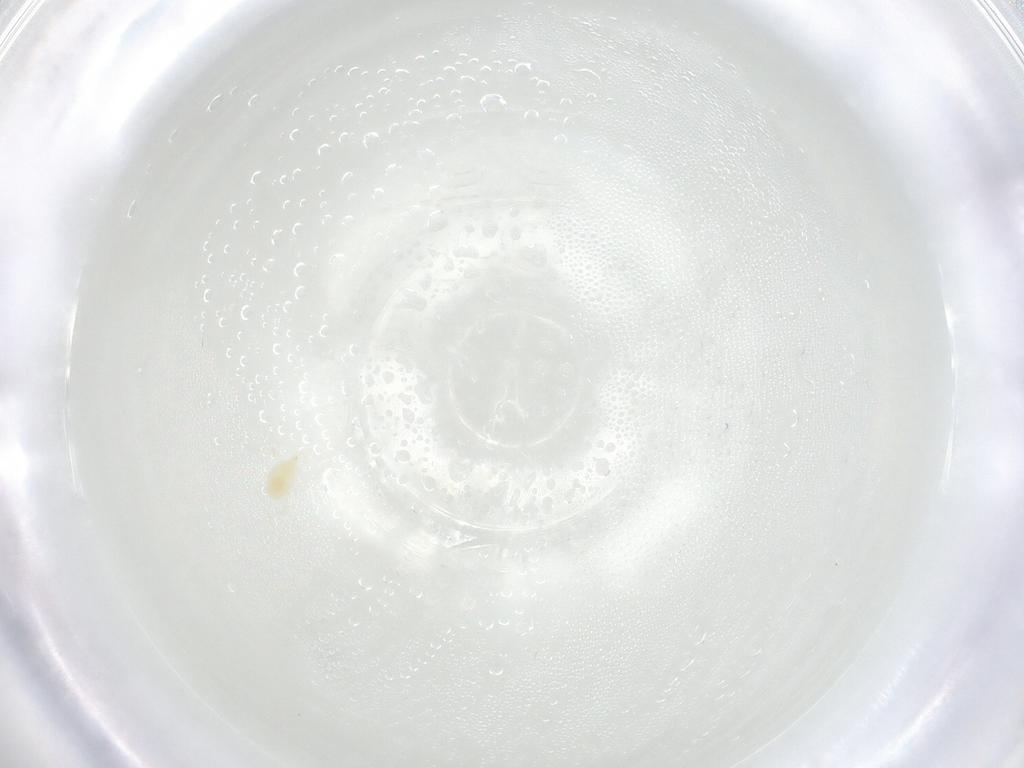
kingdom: Animalia
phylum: Arthropoda
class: Arachnida
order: Trombidiformes
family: Tetranychidae
